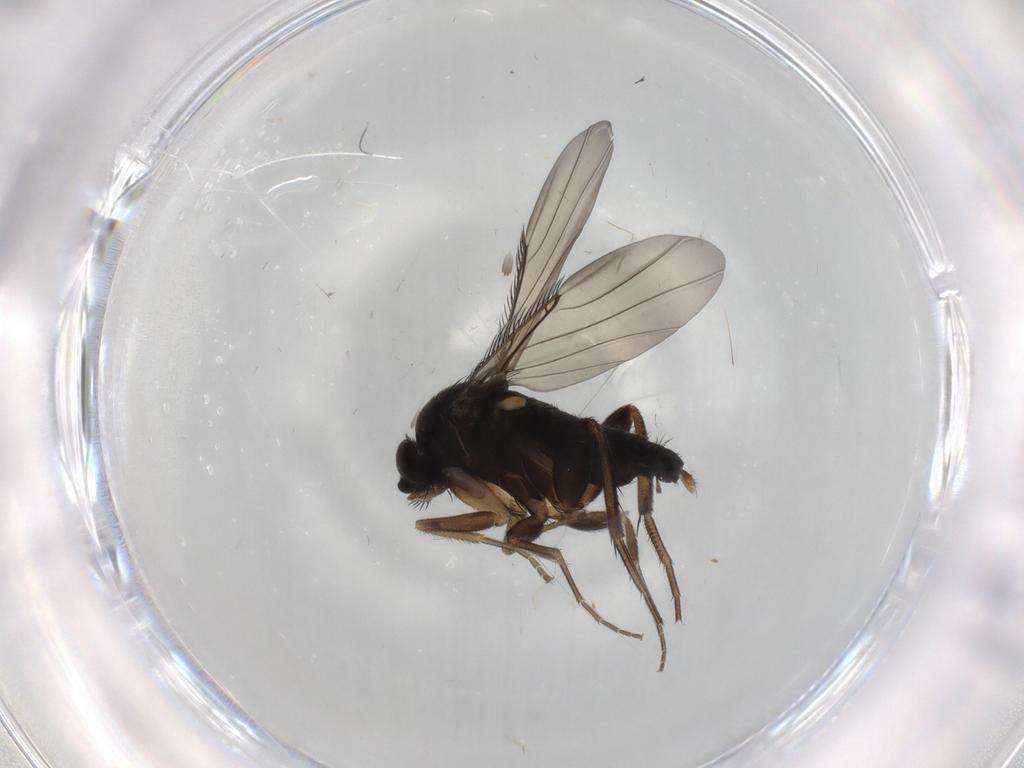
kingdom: Animalia
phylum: Arthropoda
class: Insecta
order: Diptera
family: Phoridae
